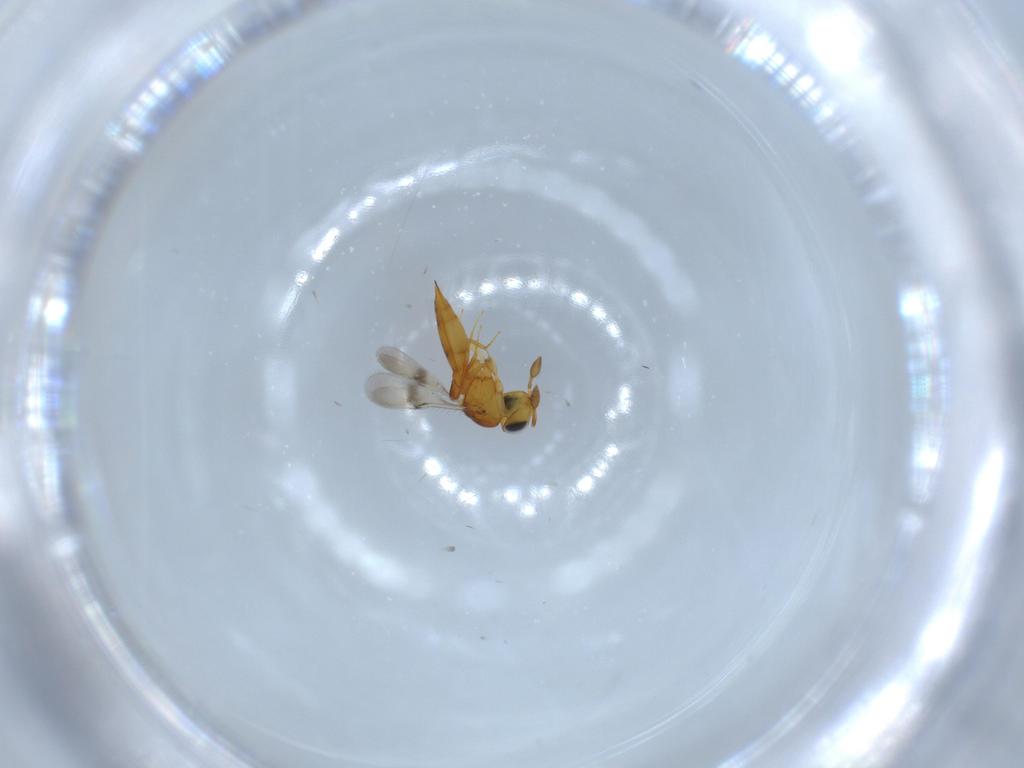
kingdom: Animalia
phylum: Arthropoda
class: Insecta
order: Hymenoptera
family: Scelionidae
